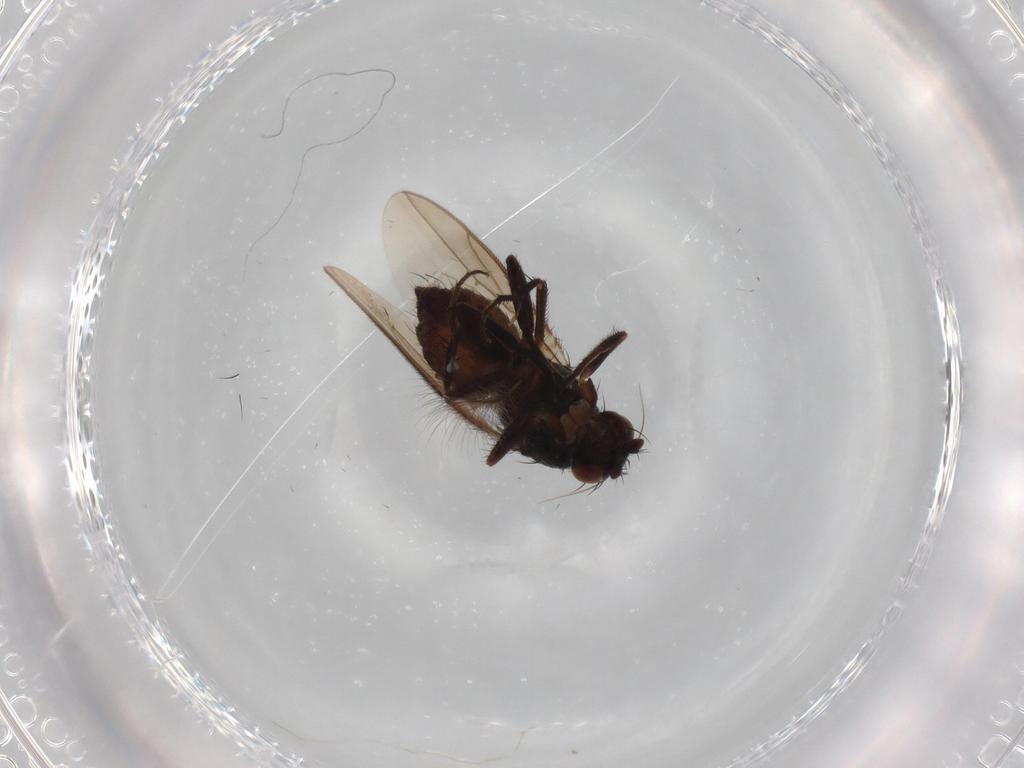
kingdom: Animalia
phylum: Arthropoda
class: Insecta
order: Diptera
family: Sphaeroceridae
